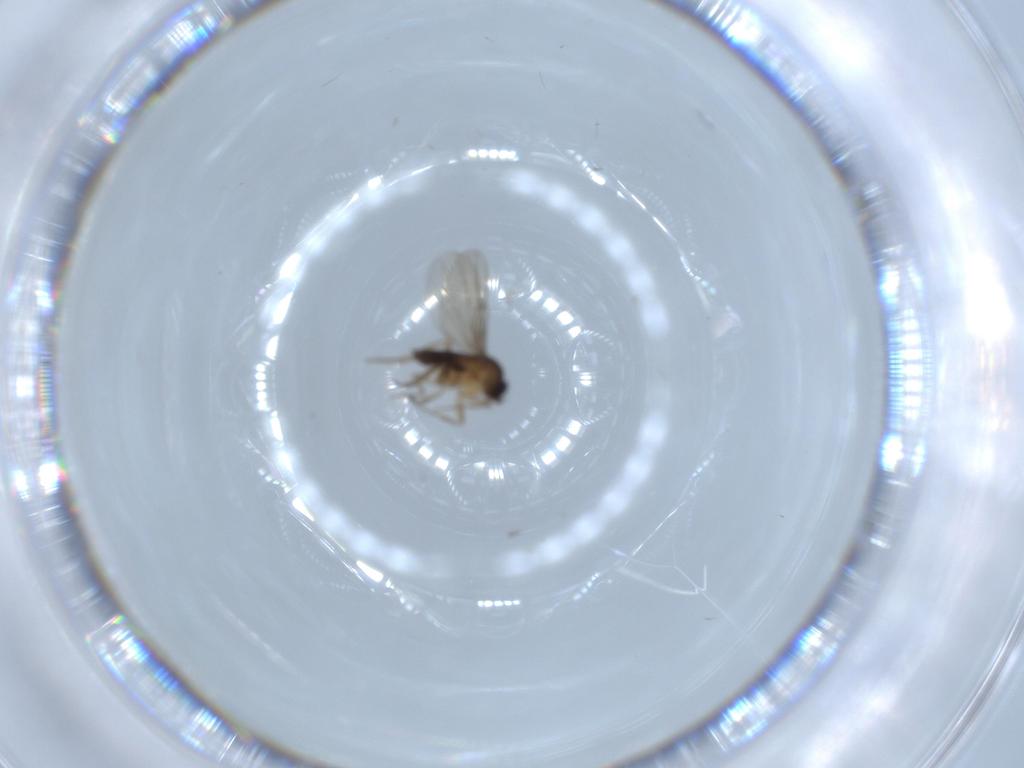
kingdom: Animalia
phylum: Arthropoda
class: Insecta
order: Diptera
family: Phoridae
